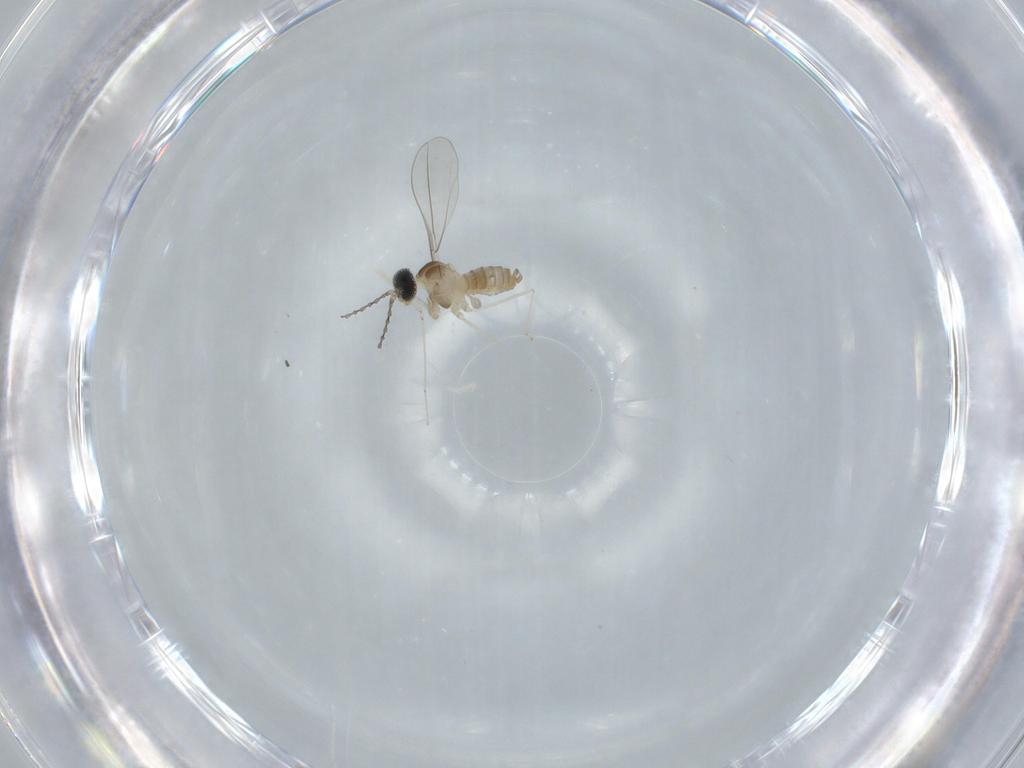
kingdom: Animalia
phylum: Arthropoda
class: Insecta
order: Diptera
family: Cecidomyiidae
